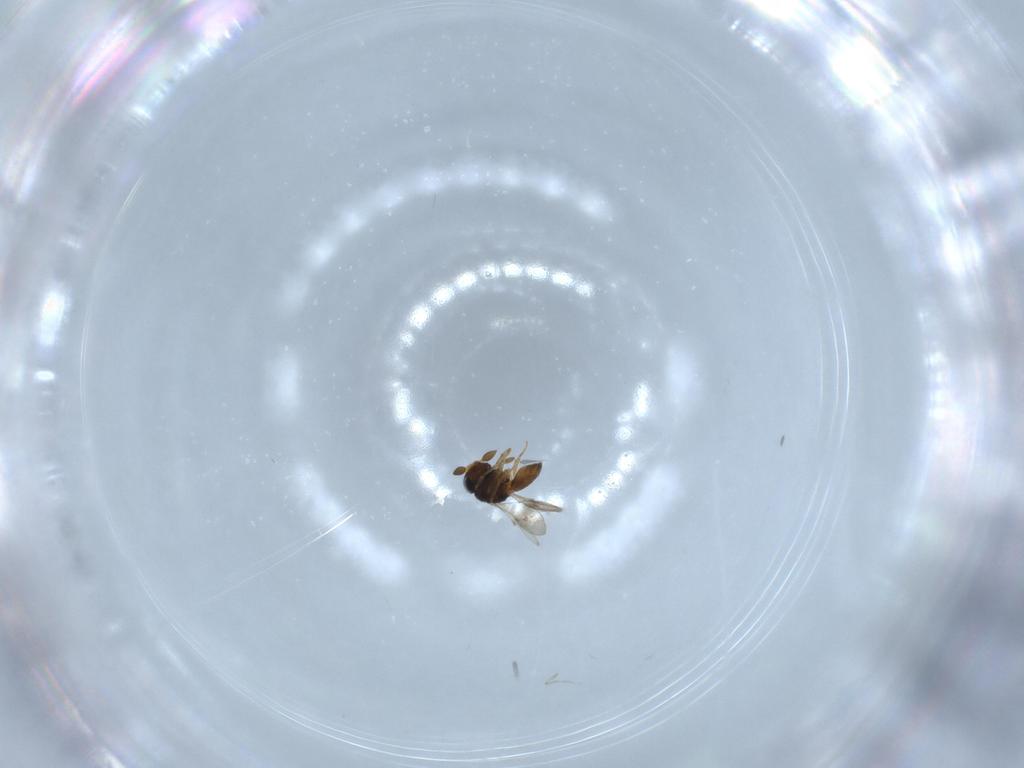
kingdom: Animalia
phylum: Arthropoda
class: Insecta
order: Hymenoptera
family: Scelionidae
